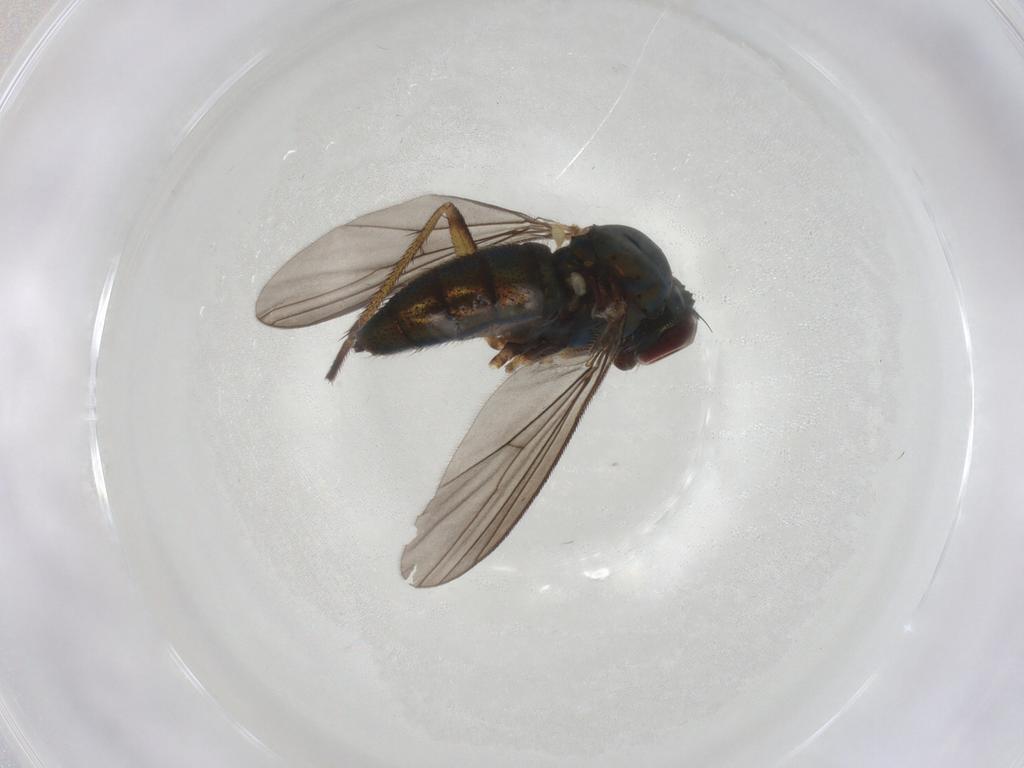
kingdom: Animalia
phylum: Arthropoda
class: Insecta
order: Diptera
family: Dolichopodidae
